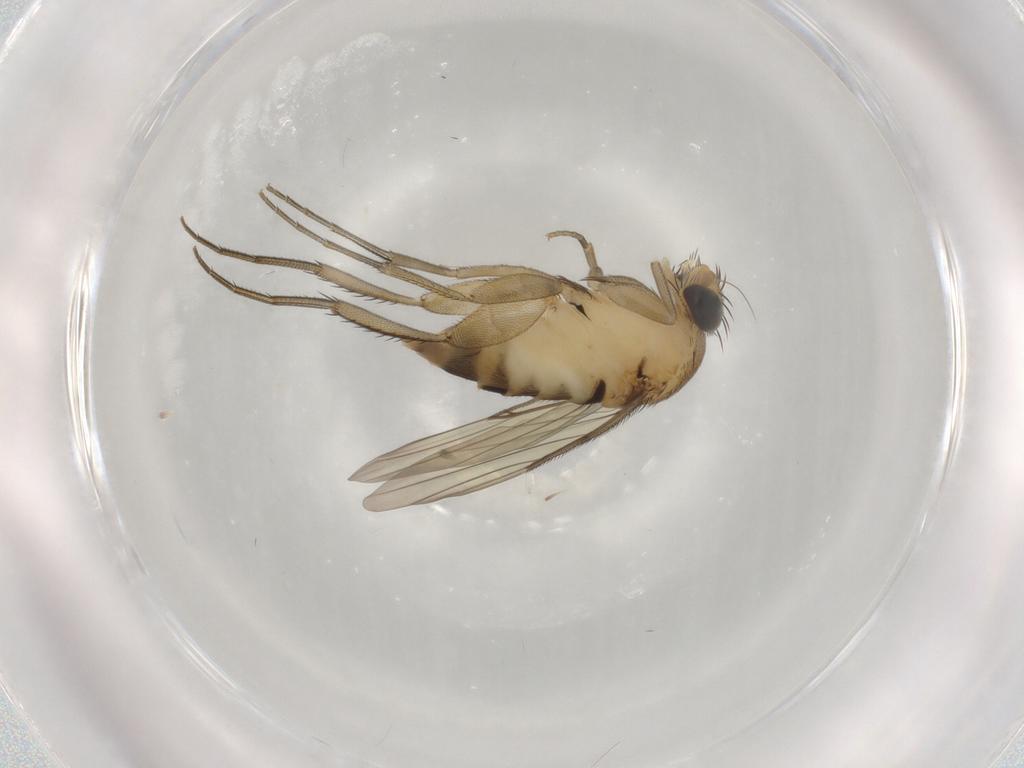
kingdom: Animalia
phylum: Arthropoda
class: Insecta
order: Diptera
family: Phoridae
